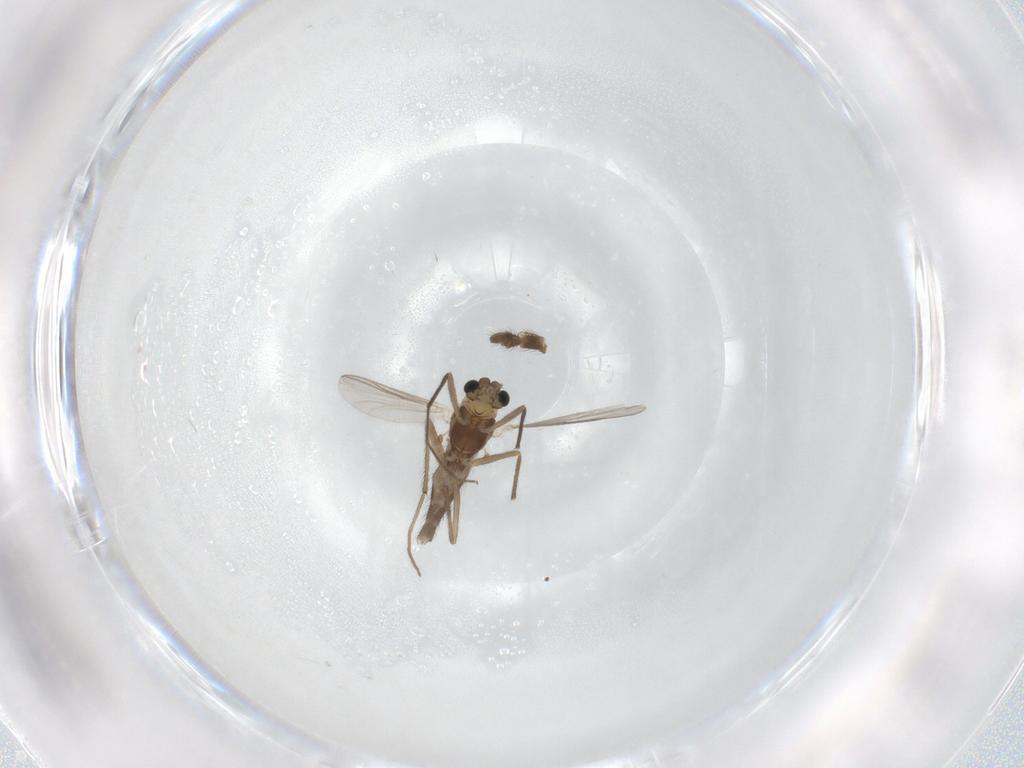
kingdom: Animalia
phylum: Arthropoda
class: Insecta
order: Diptera
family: Chironomidae
